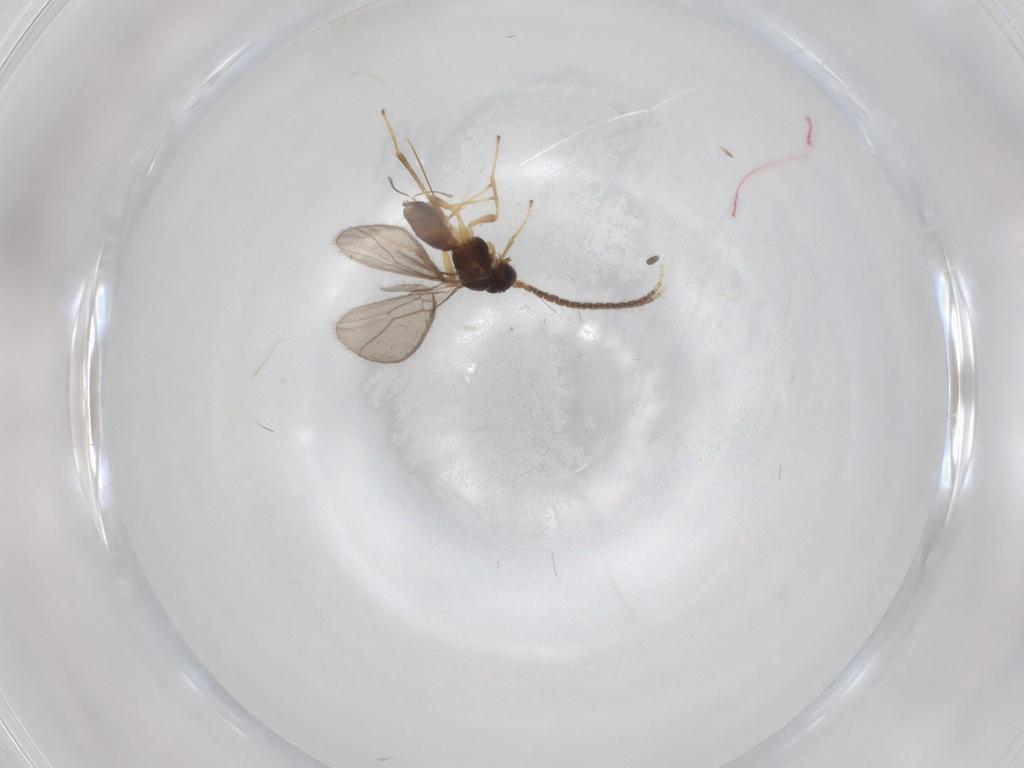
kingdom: Animalia
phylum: Arthropoda
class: Insecta
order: Hymenoptera
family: Braconidae
